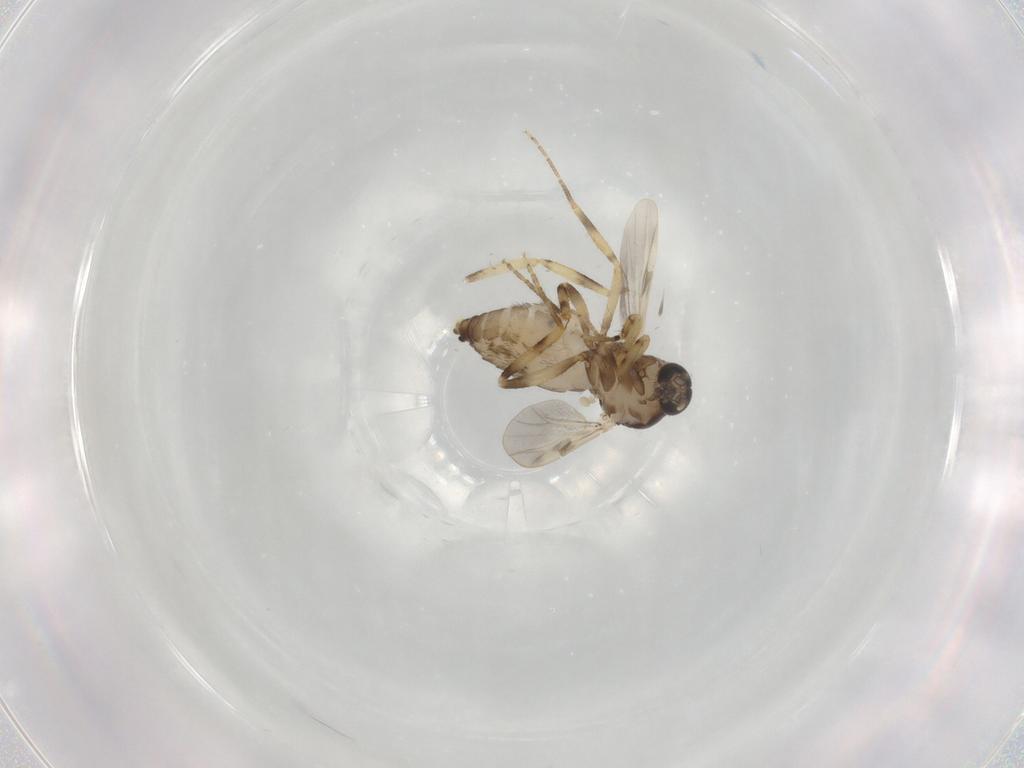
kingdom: Animalia
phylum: Arthropoda
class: Insecta
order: Diptera
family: Ceratopogonidae
